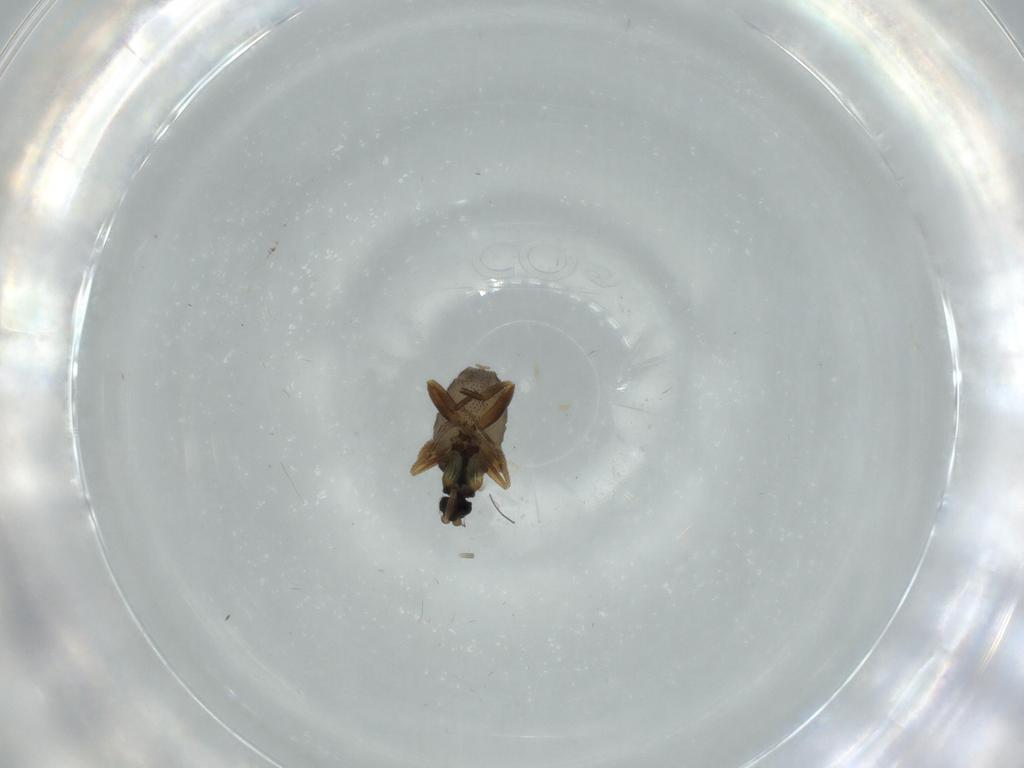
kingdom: Animalia
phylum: Arthropoda
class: Insecta
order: Diptera
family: Phoridae
